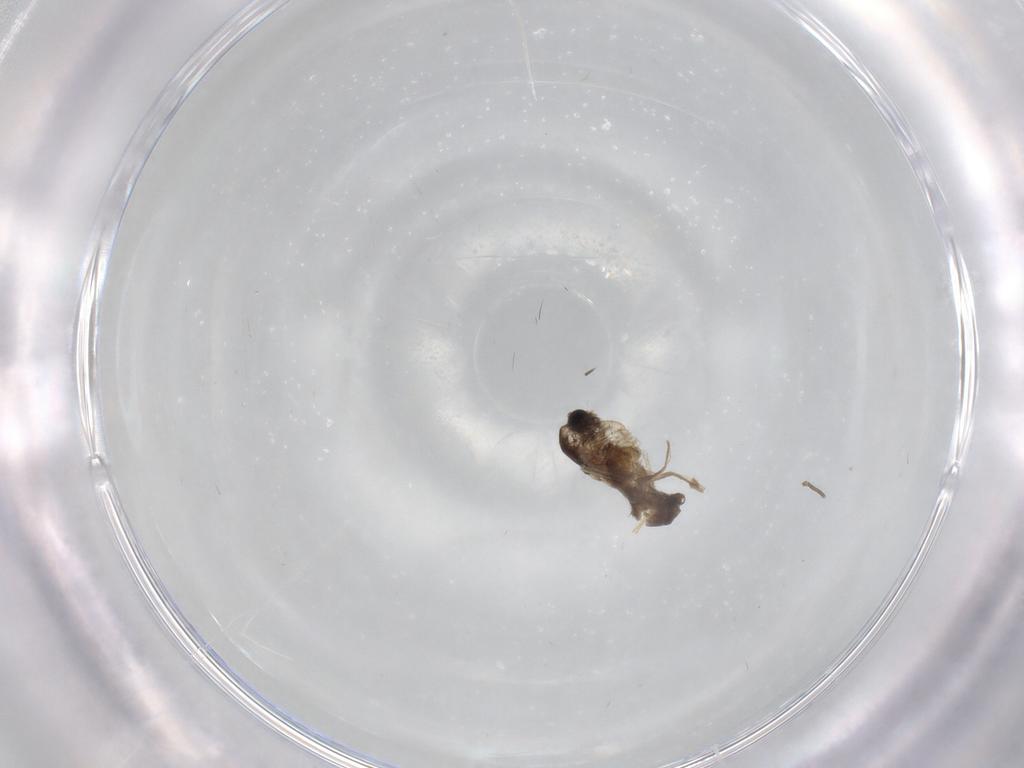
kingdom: Animalia
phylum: Arthropoda
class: Insecta
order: Diptera
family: Chironomidae
